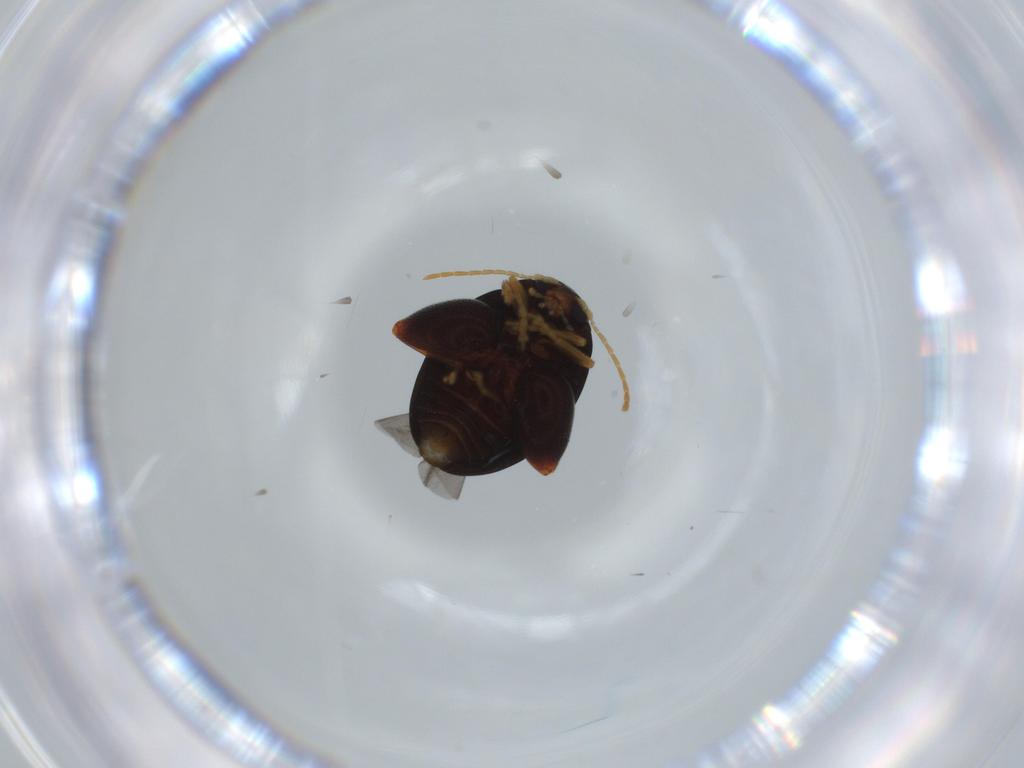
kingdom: Animalia
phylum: Arthropoda
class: Insecta
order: Coleoptera
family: Chrysomelidae
